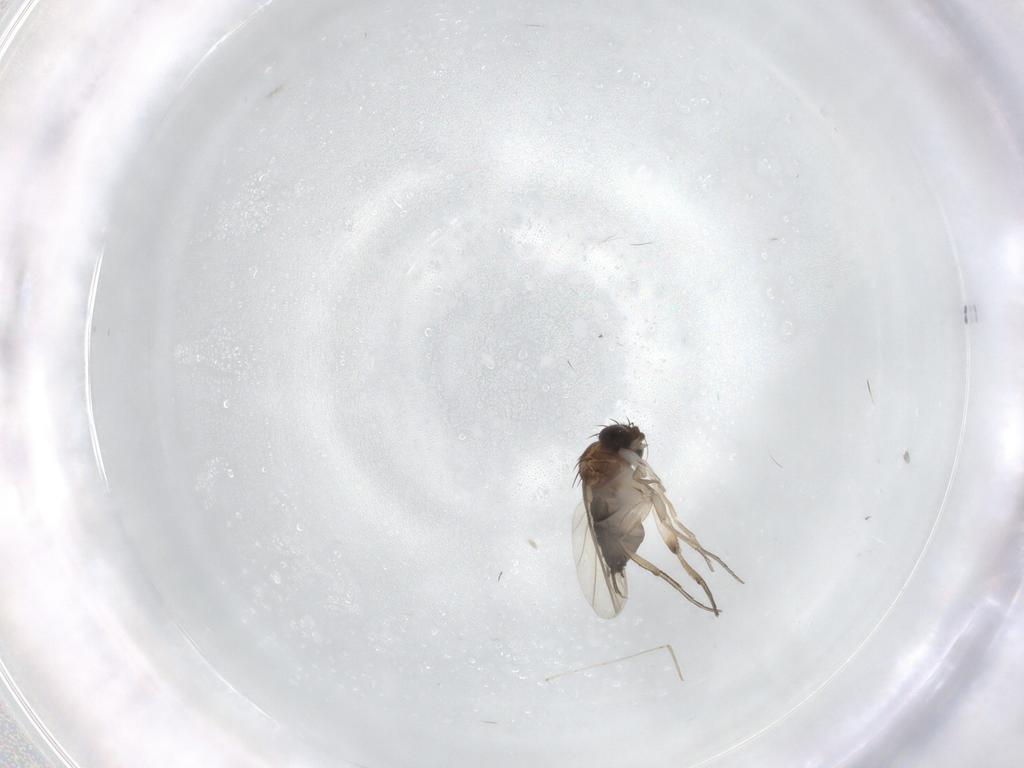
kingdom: Animalia
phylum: Arthropoda
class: Insecta
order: Diptera
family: Phoridae
